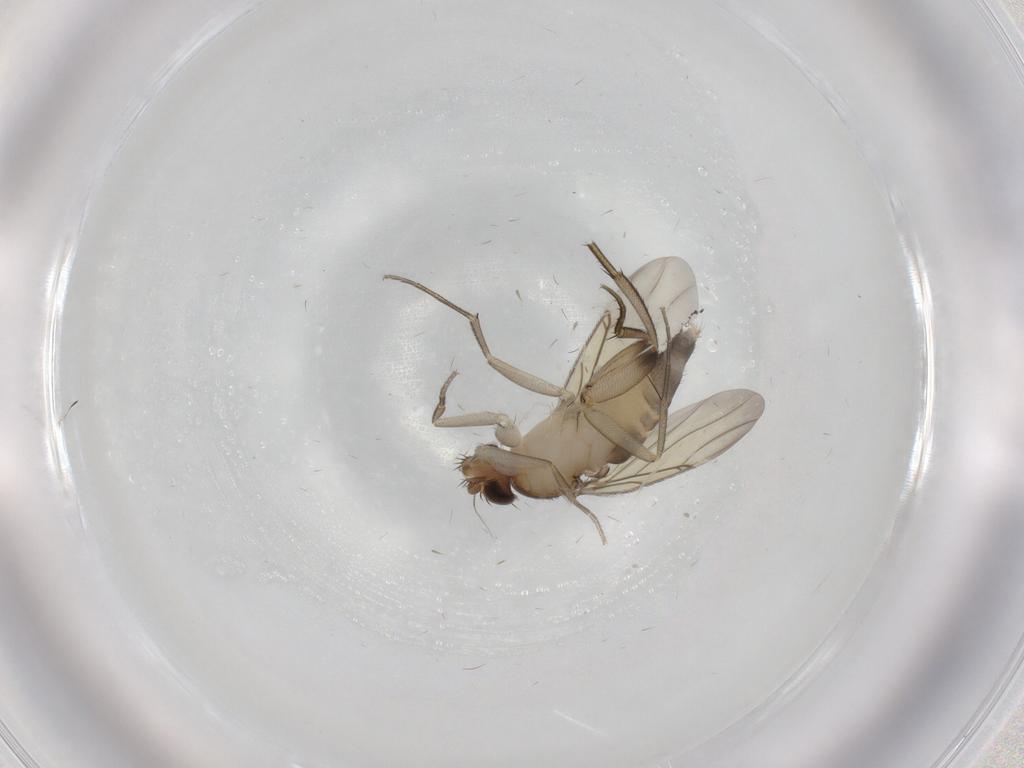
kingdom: Animalia
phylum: Arthropoda
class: Insecta
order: Diptera
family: Phoridae
